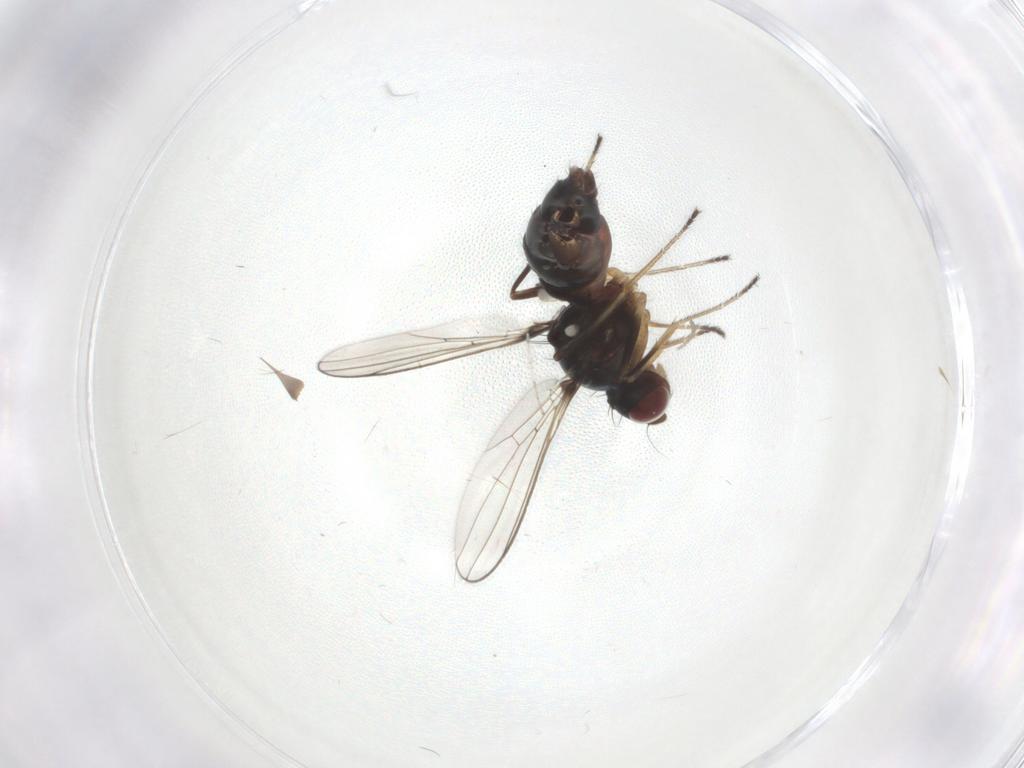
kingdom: Animalia
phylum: Arthropoda
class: Insecta
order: Diptera
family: Cecidomyiidae
